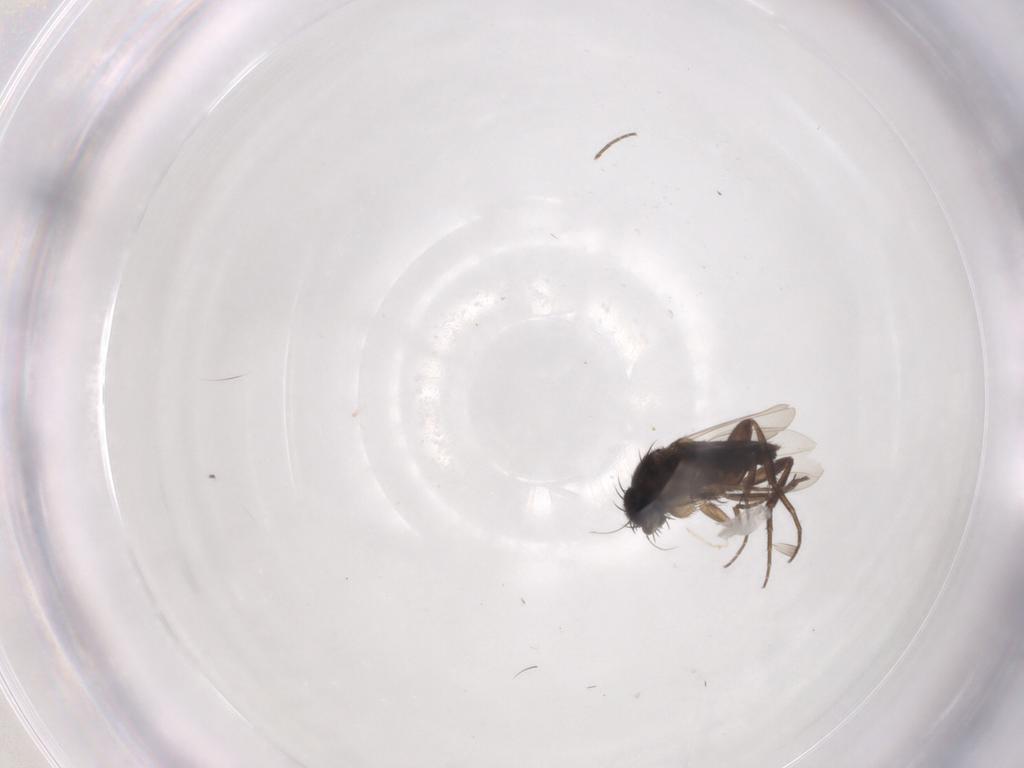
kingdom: Animalia
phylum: Arthropoda
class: Insecta
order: Diptera
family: Phoridae
